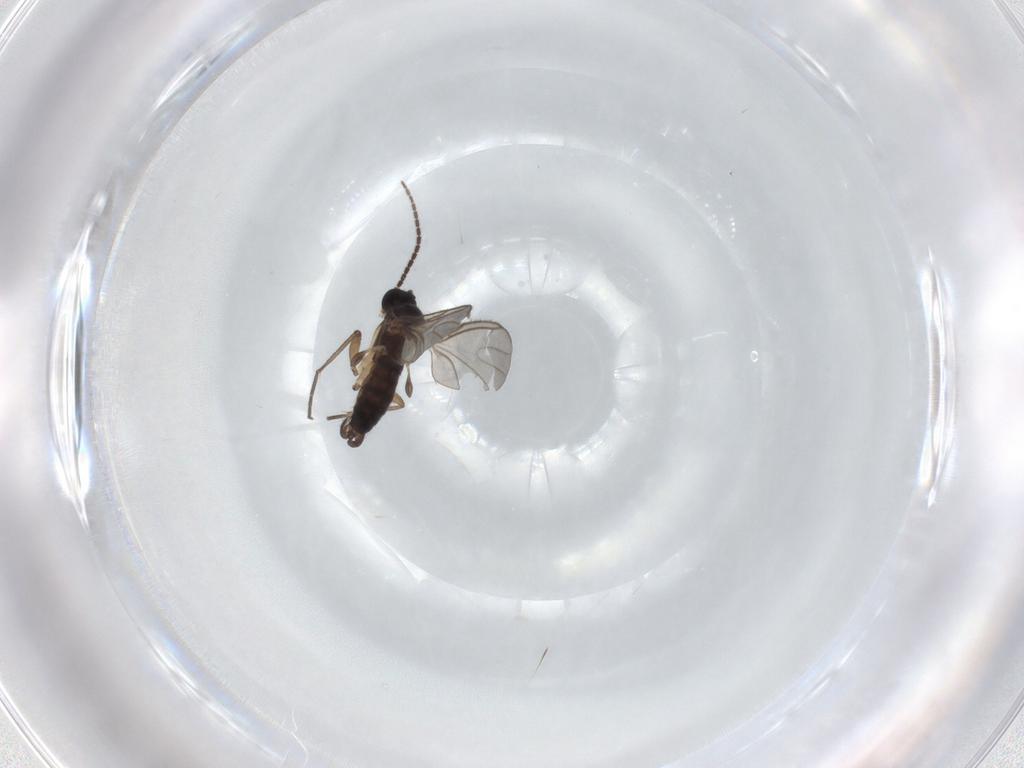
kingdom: Animalia
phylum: Arthropoda
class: Insecta
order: Diptera
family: Sciaridae
